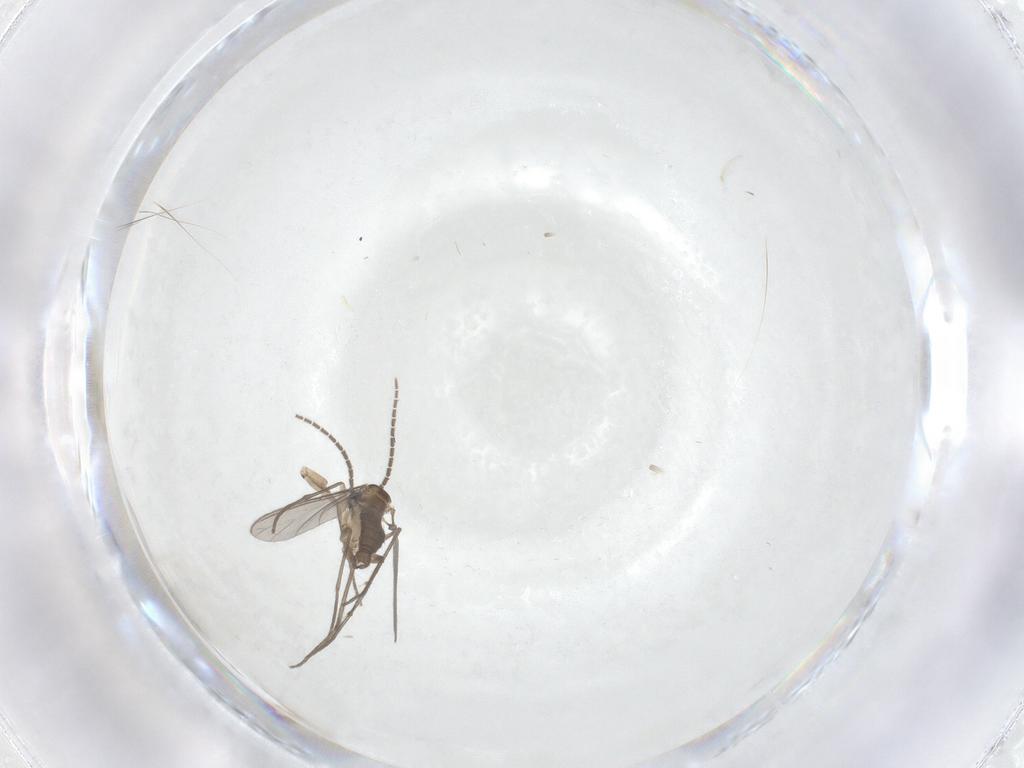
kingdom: Animalia
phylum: Arthropoda
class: Insecta
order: Diptera
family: Sciaridae
